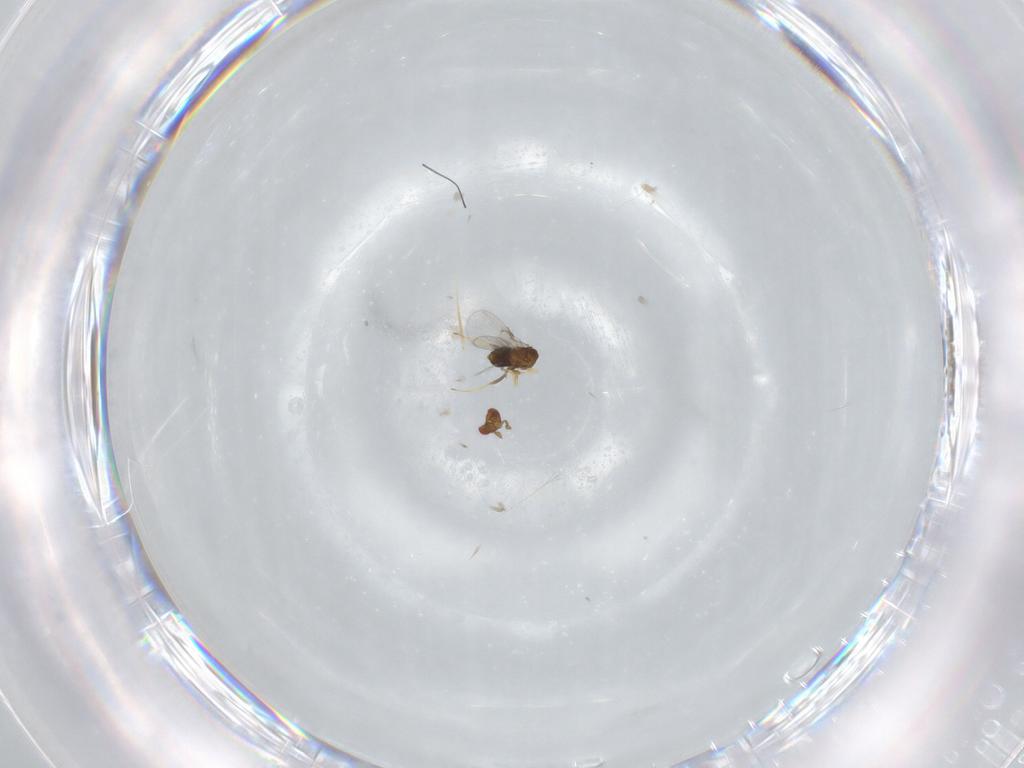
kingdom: Animalia
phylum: Arthropoda
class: Insecta
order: Hymenoptera
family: Trichogrammatidae
